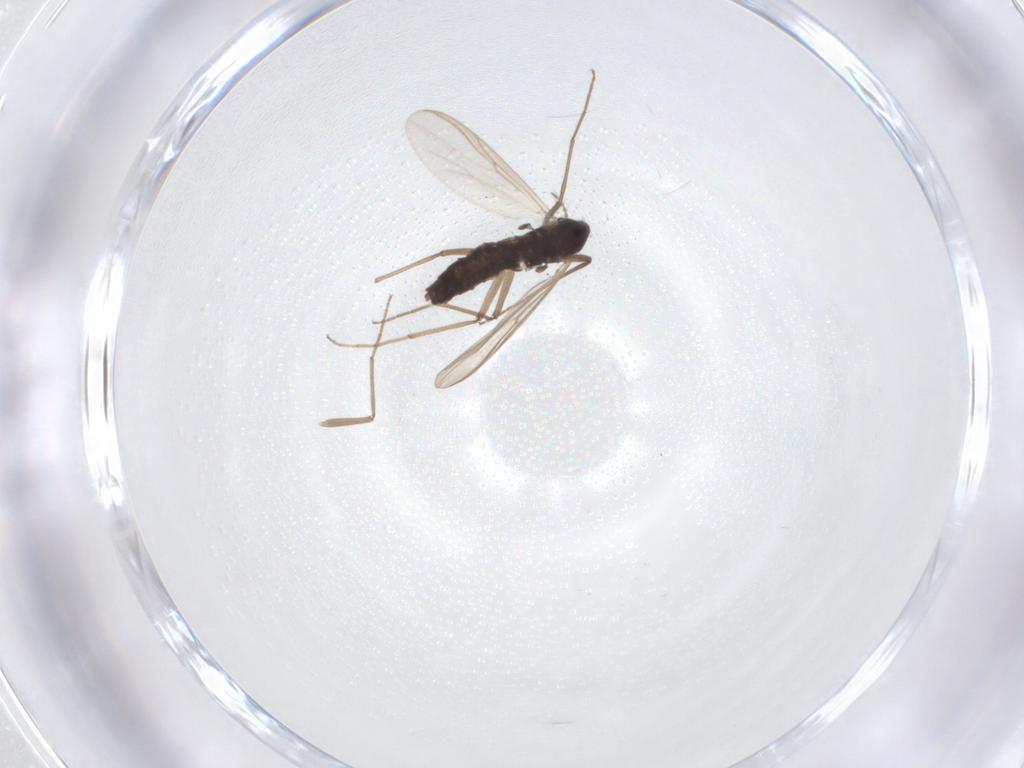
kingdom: Animalia
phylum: Arthropoda
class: Insecta
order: Diptera
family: Chironomidae
